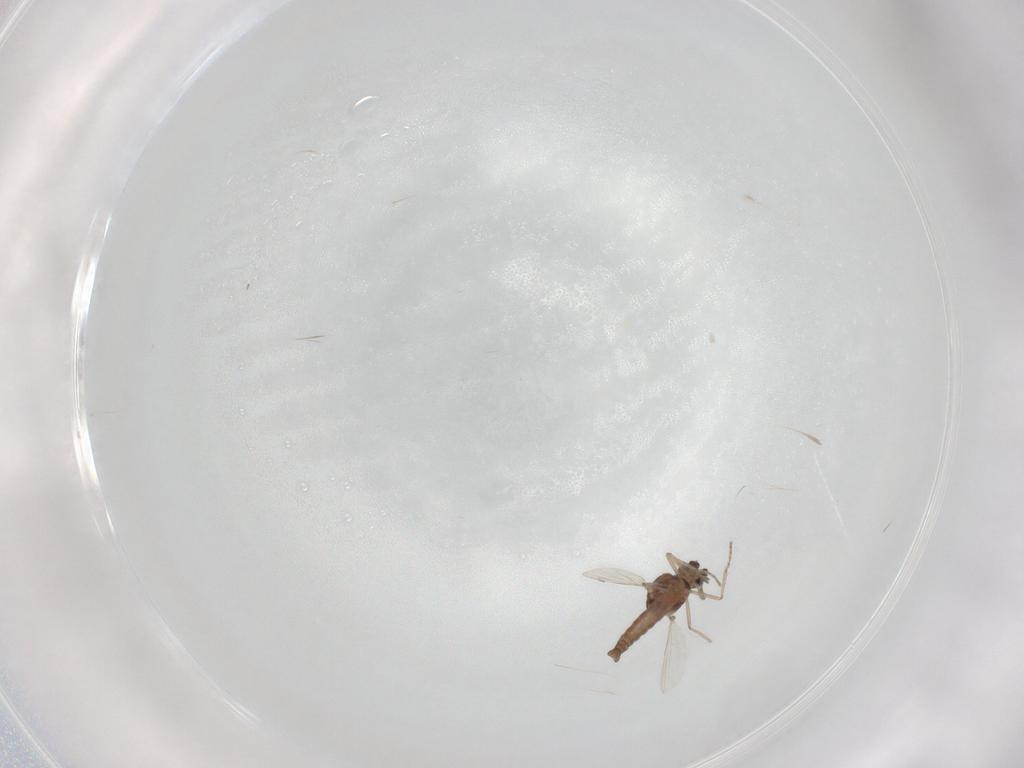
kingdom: Animalia
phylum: Arthropoda
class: Insecta
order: Diptera
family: Ceratopogonidae
